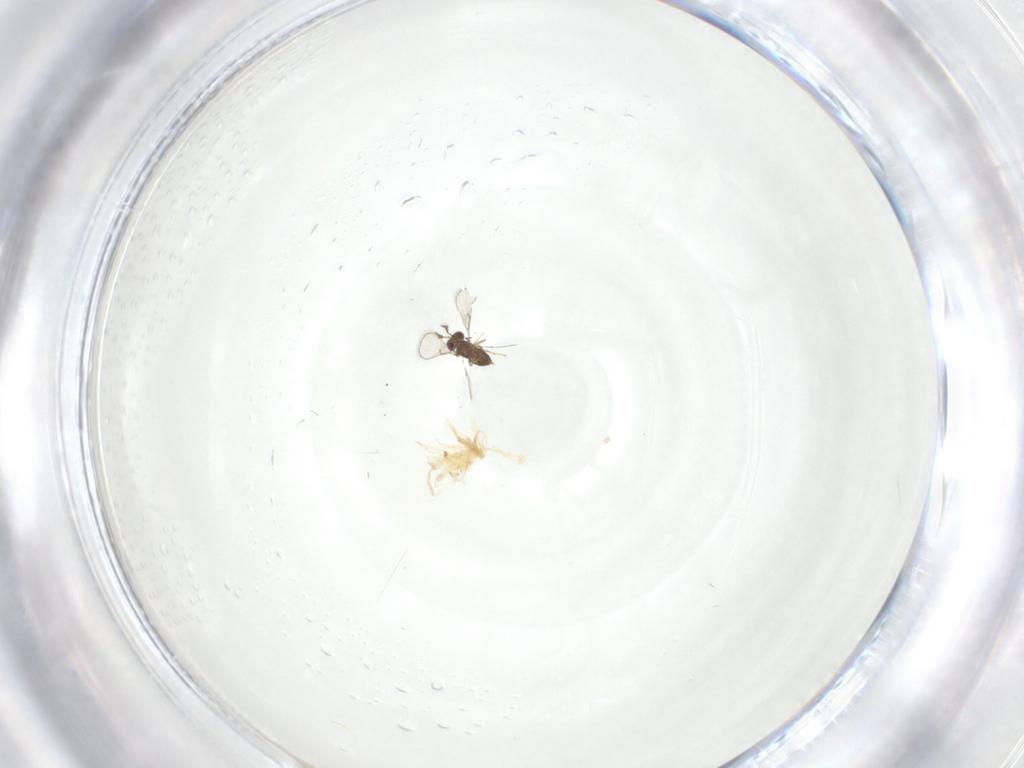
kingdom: Animalia
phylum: Arthropoda
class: Insecta
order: Hymenoptera
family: Trichogrammatidae
